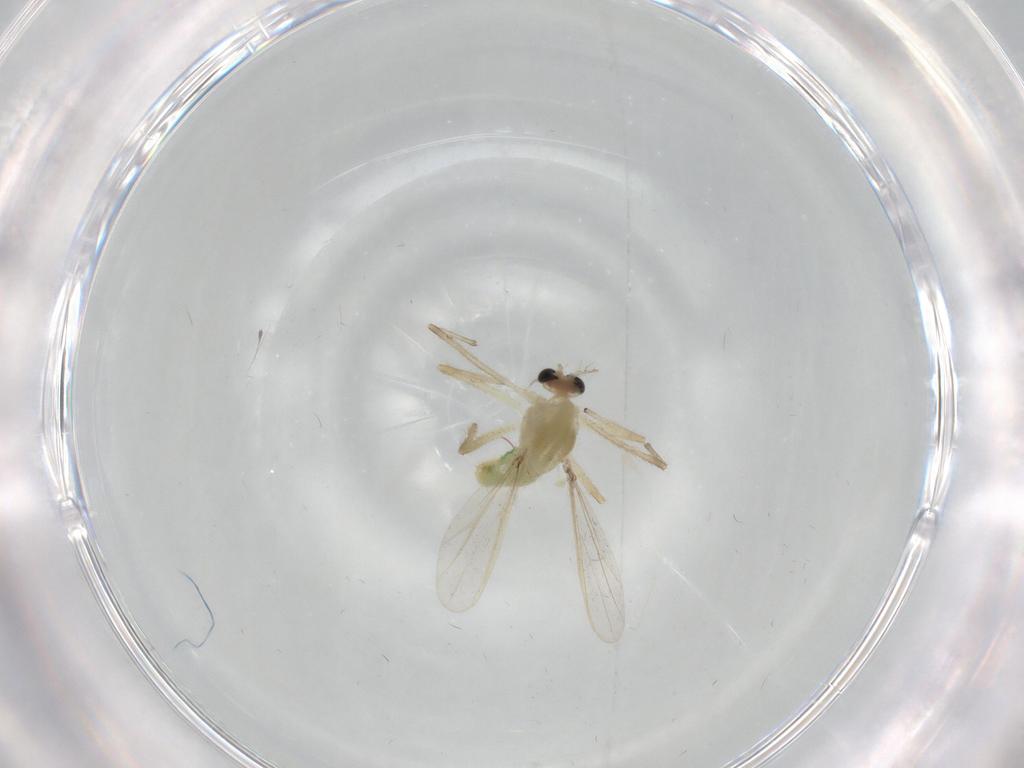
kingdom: Animalia
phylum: Arthropoda
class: Insecta
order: Diptera
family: Chironomidae
